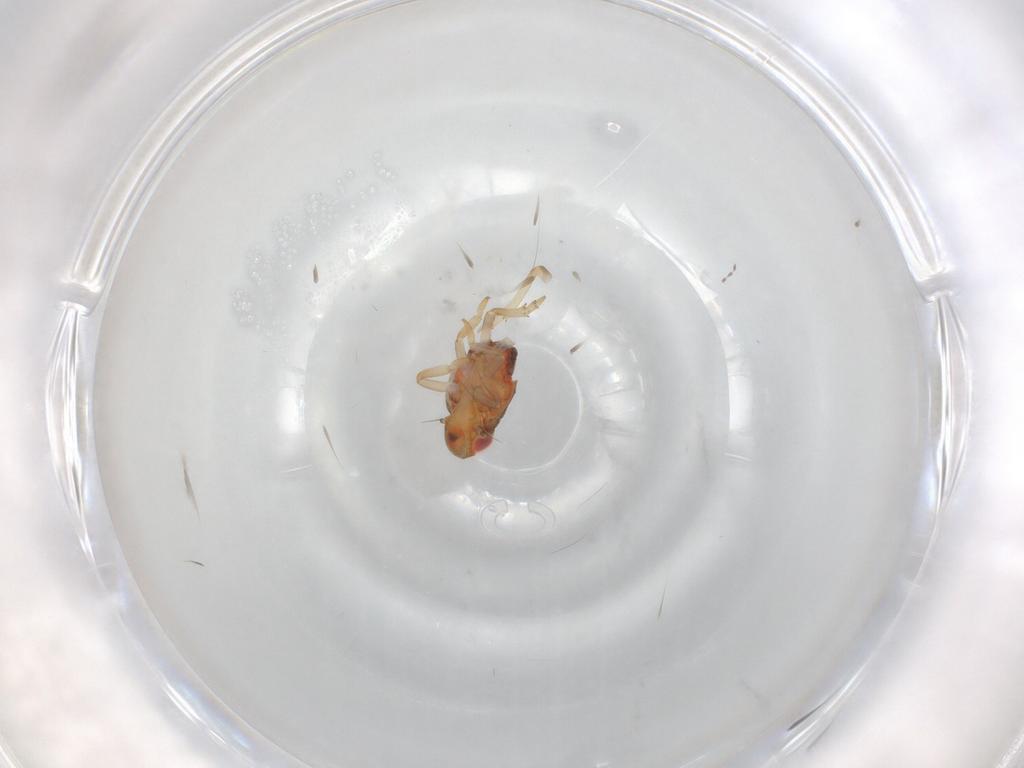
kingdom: Animalia
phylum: Arthropoda
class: Insecta
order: Hemiptera
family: Issidae
